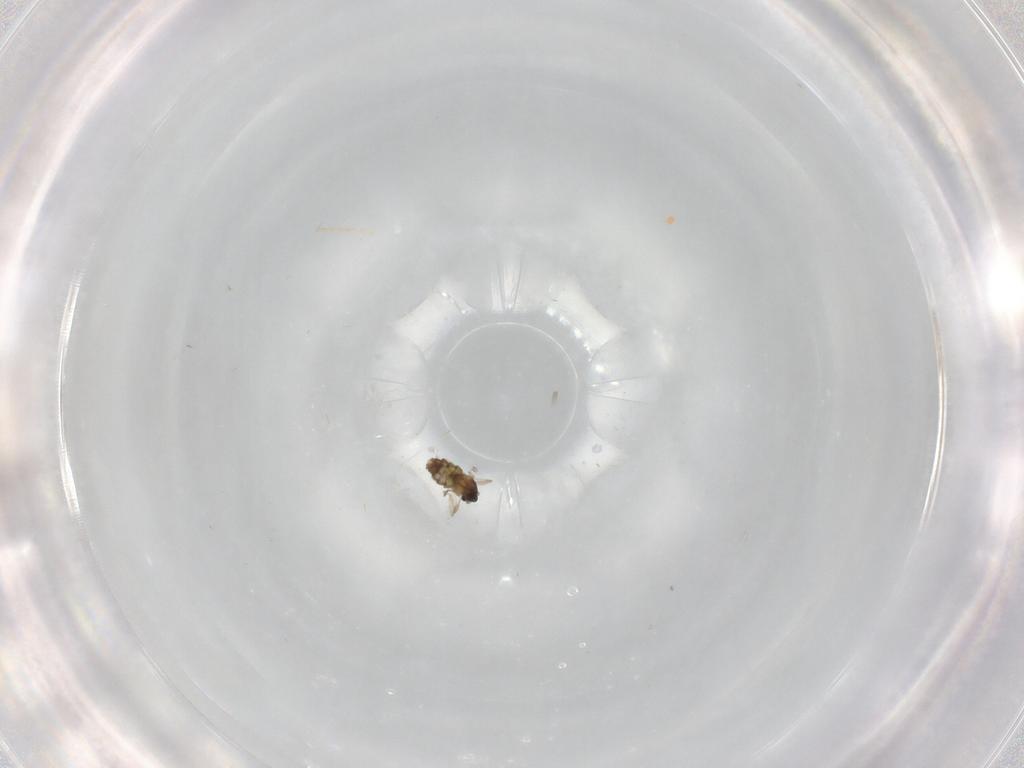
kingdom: Animalia
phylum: Arthropoda
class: Insecta
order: Diptera
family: Cecidomyiidae
